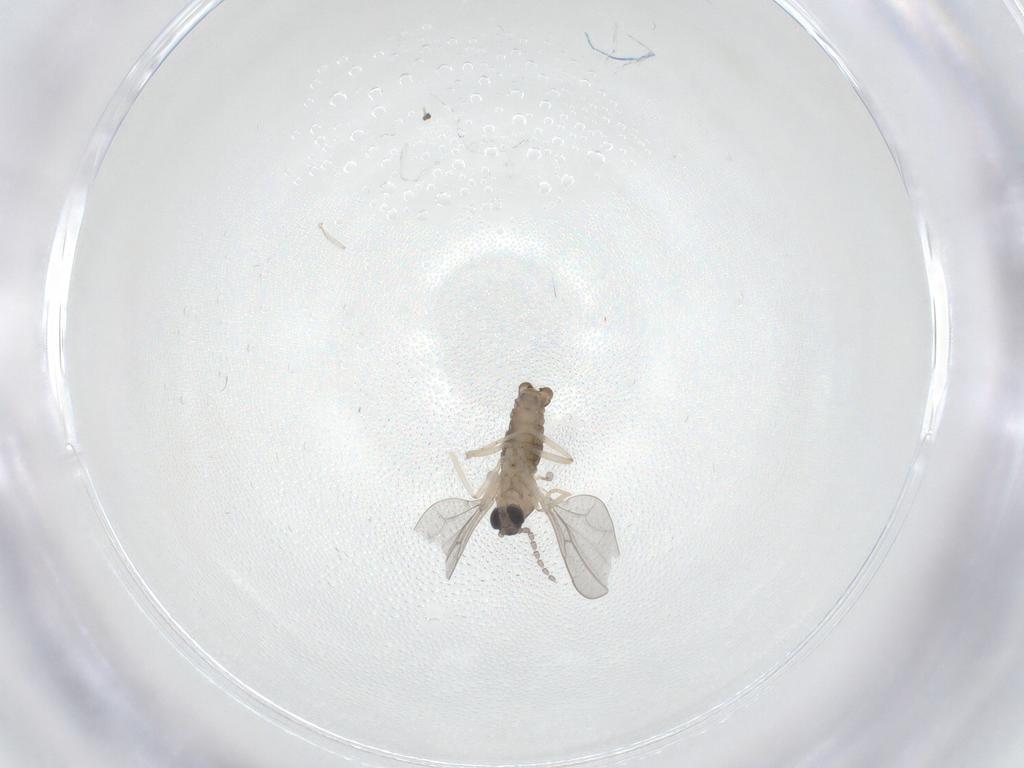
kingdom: Animalia
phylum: Arthropoda
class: Insecta
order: Diptera
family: Cecidomyiidae
